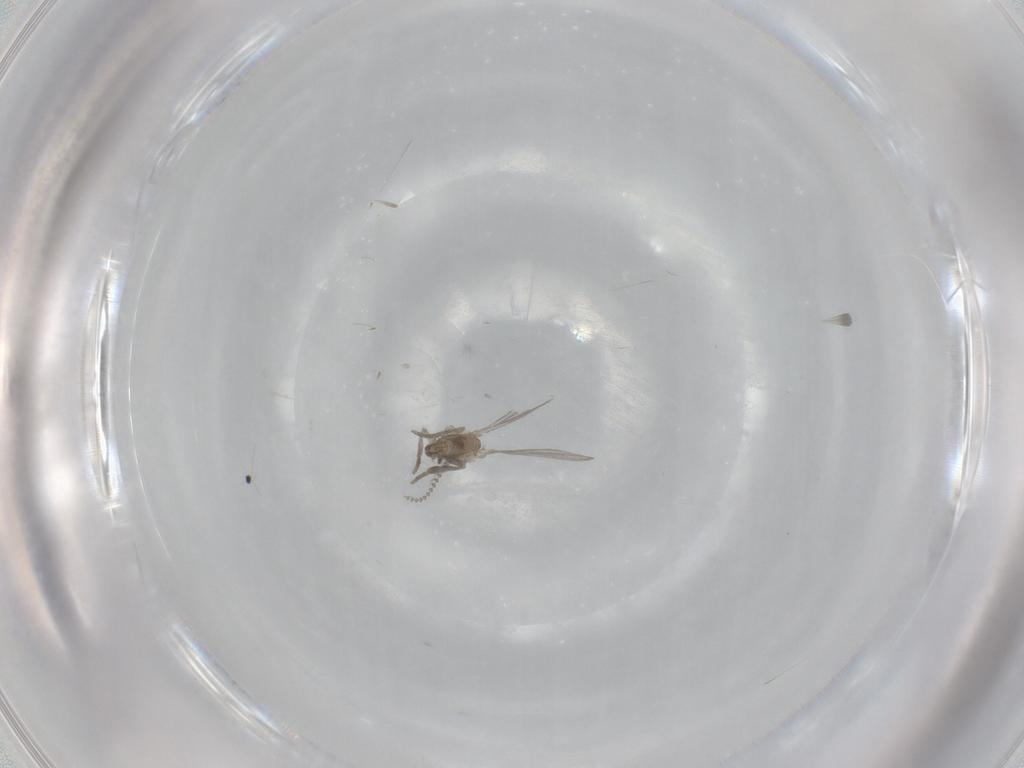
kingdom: Animalia
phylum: Arthropoda
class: Insecta
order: Diptera
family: Psychodidae
